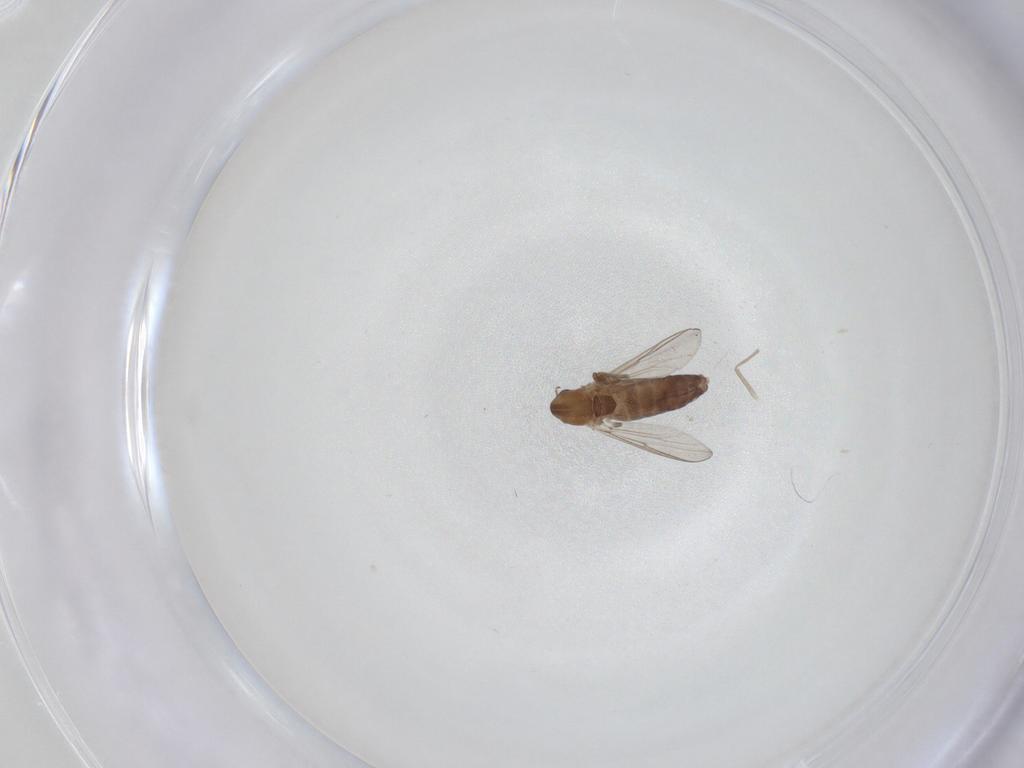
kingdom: Animalia
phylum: Arthropoda
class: Insecta
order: Diptera
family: Chironomidae
